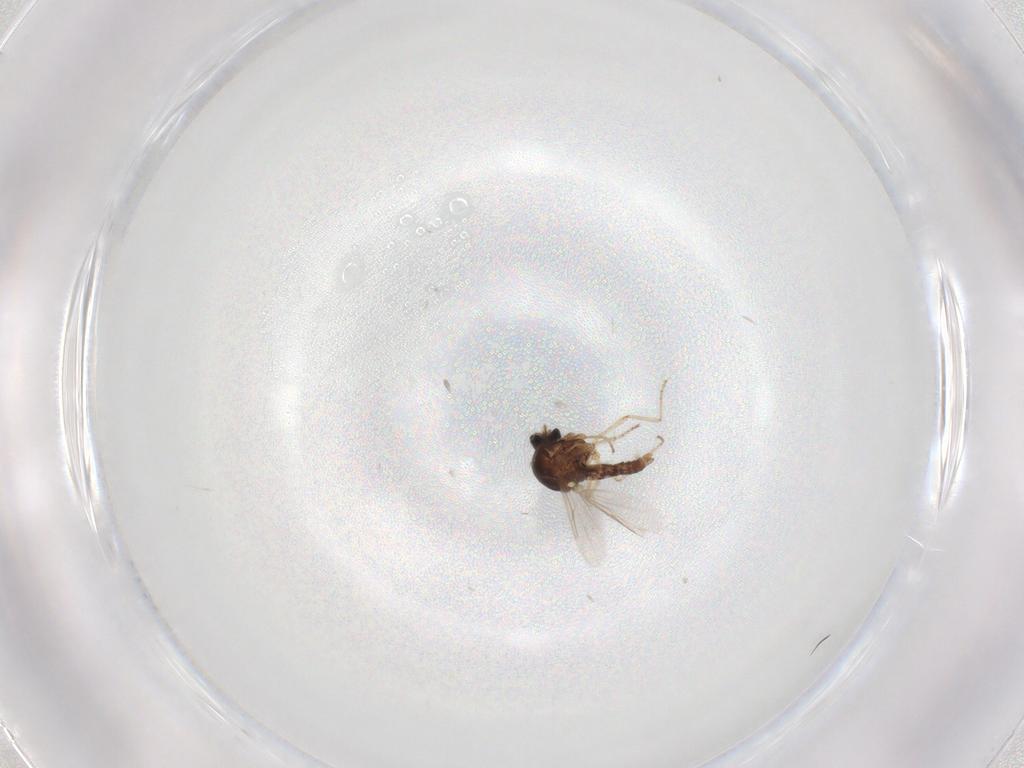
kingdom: Animalia
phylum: Arthropoda
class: Insecta
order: Diptera
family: Ceratopogonidae
